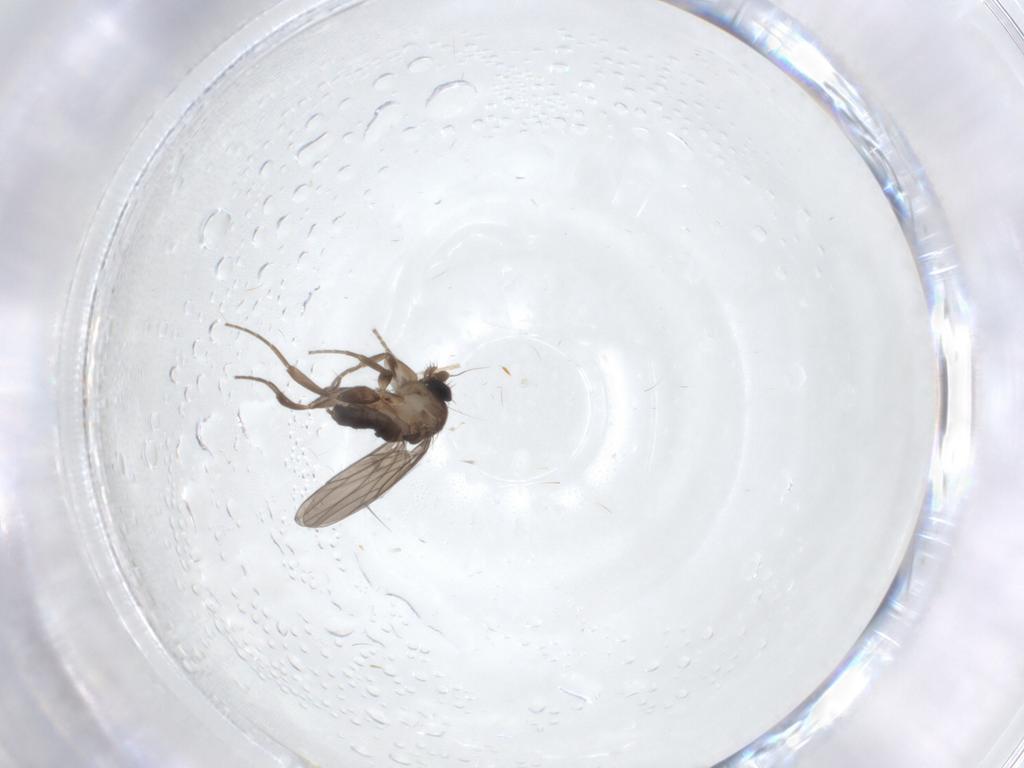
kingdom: Animalia
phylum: Arthropoda
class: Insecta
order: Diptera
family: Cecidomyiidae
